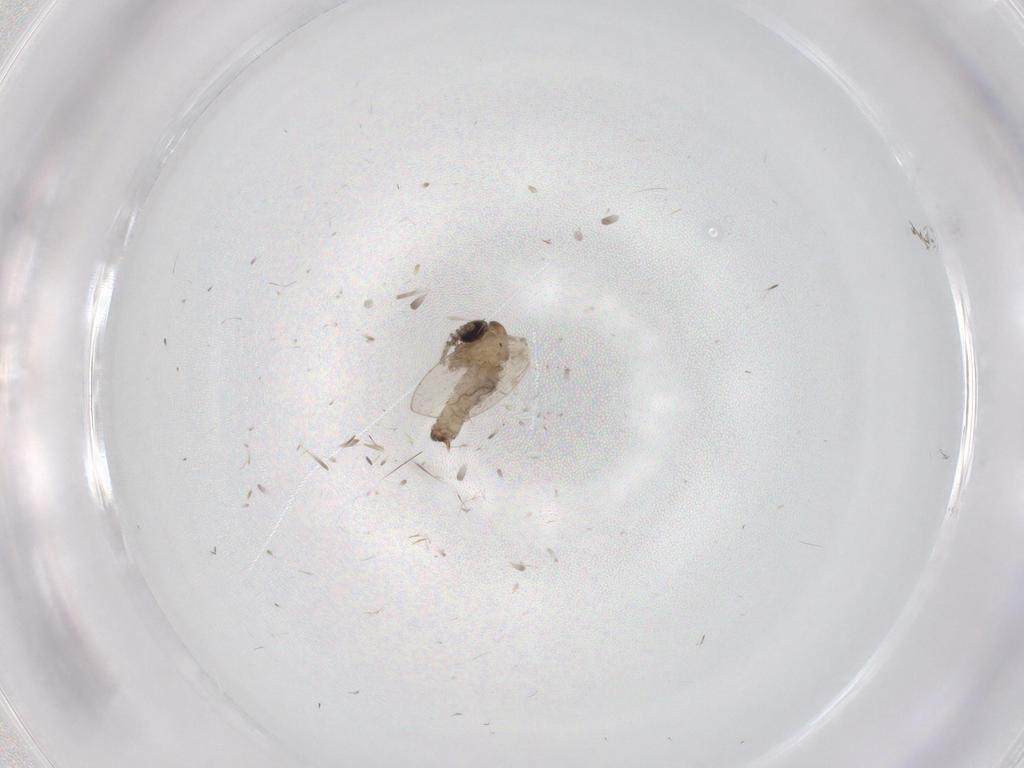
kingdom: Animalia
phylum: Arthropoda
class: Insecta
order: Diptera
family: Psychodidae
